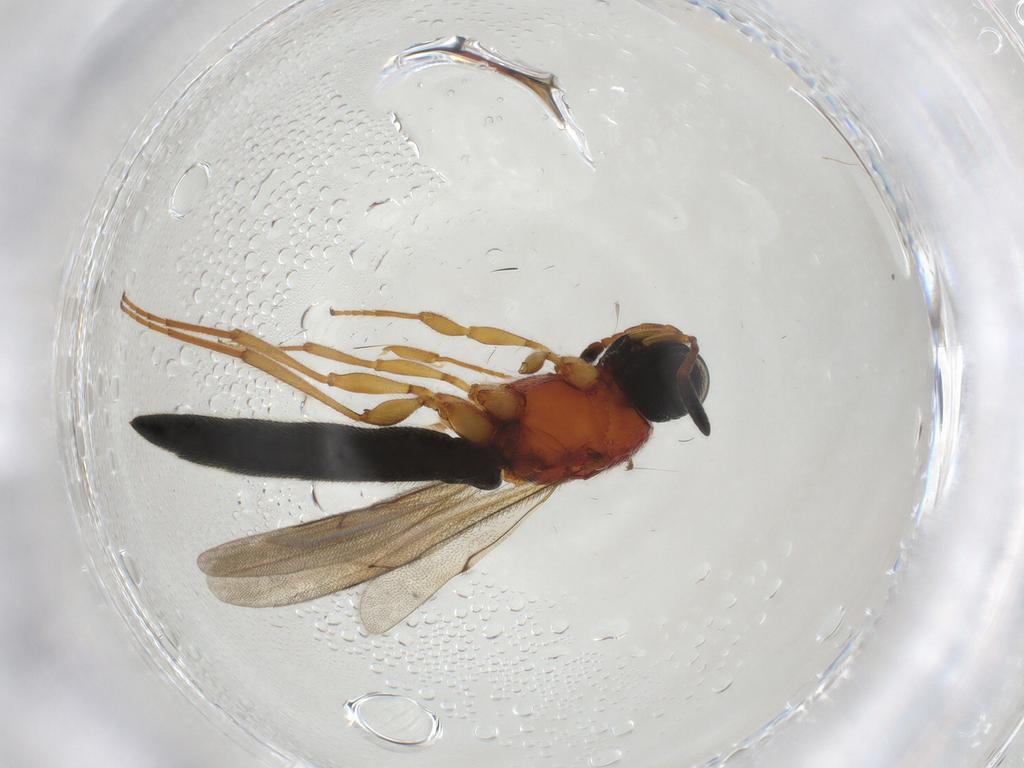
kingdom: Animalia
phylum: Arthropoda
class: Insecta
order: Hymenoptera
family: Scelionidae
